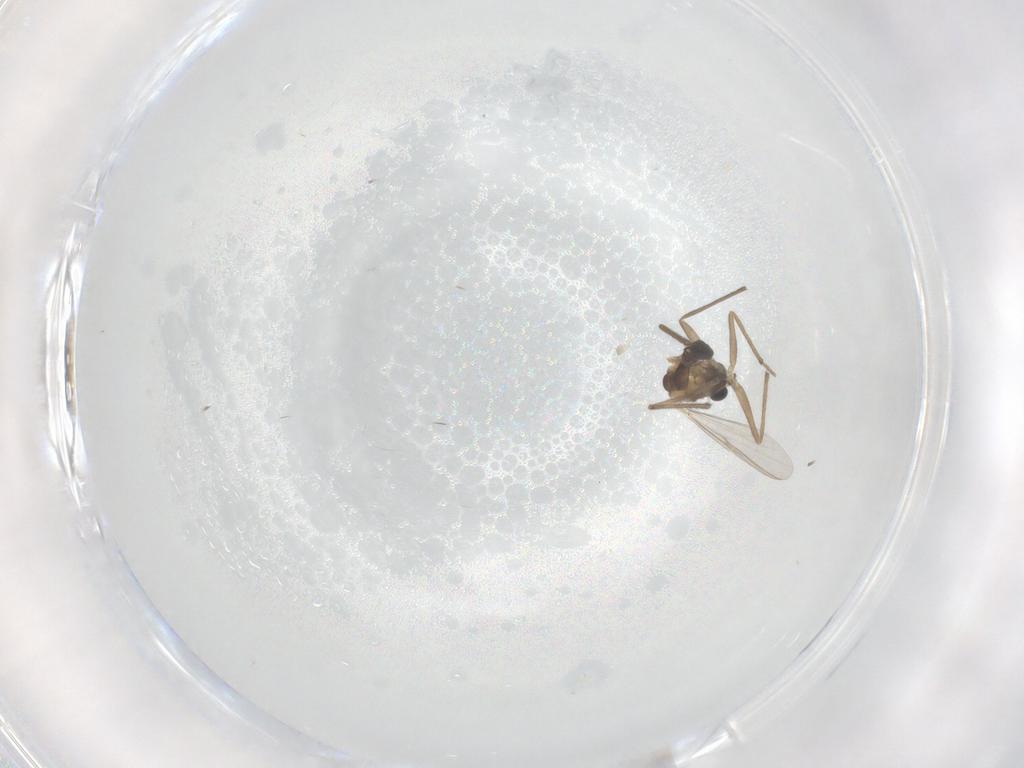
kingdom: Animalia
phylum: Arthropoda
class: Insecta
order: Diptera
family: Chironomidae
